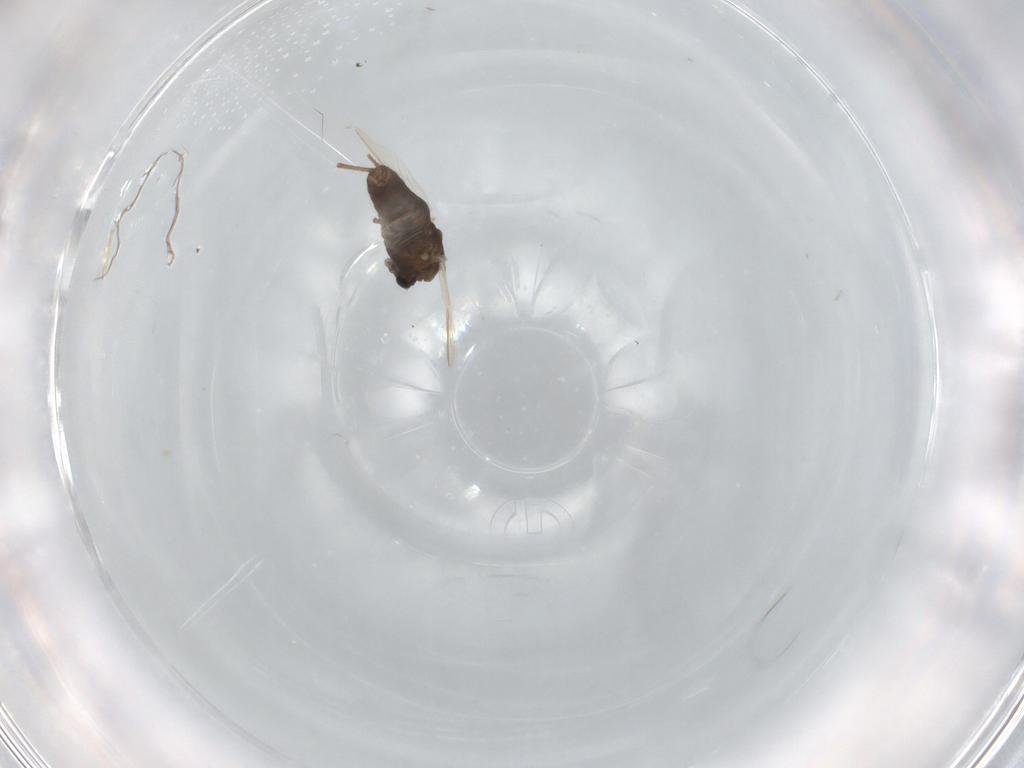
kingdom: Animalia
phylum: Arthropoda
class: Insecta
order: Diptera
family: Chironomidae
